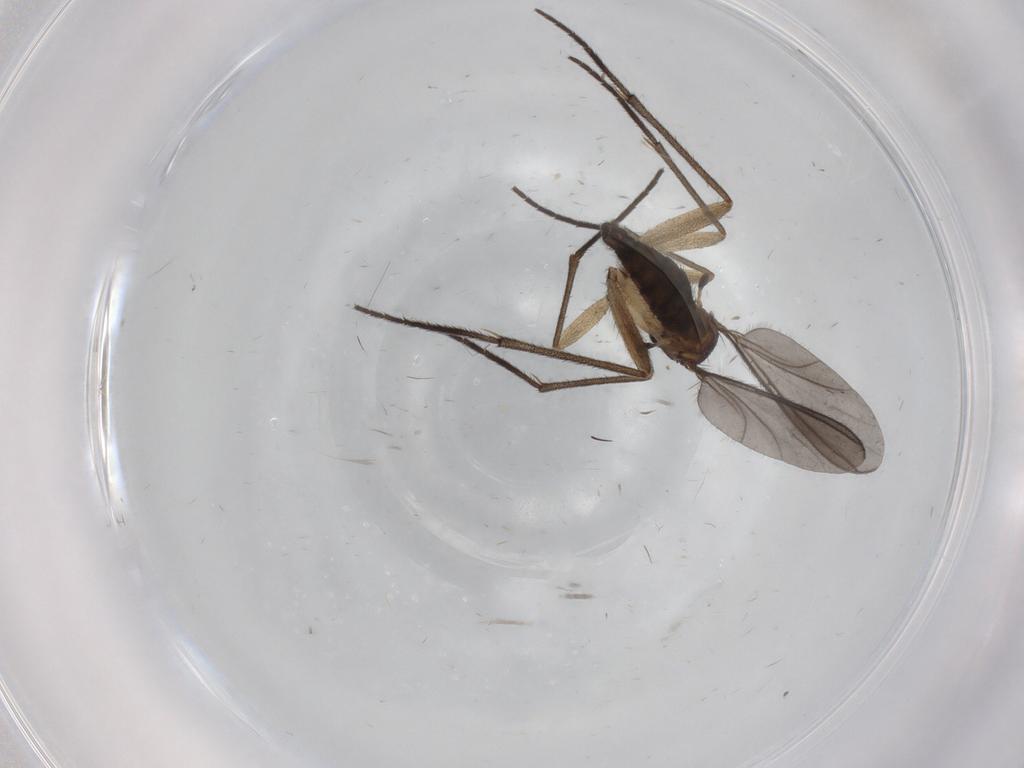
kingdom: Animalia
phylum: Arthropoda
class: Insecta
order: Diptera
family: Sciaridae
